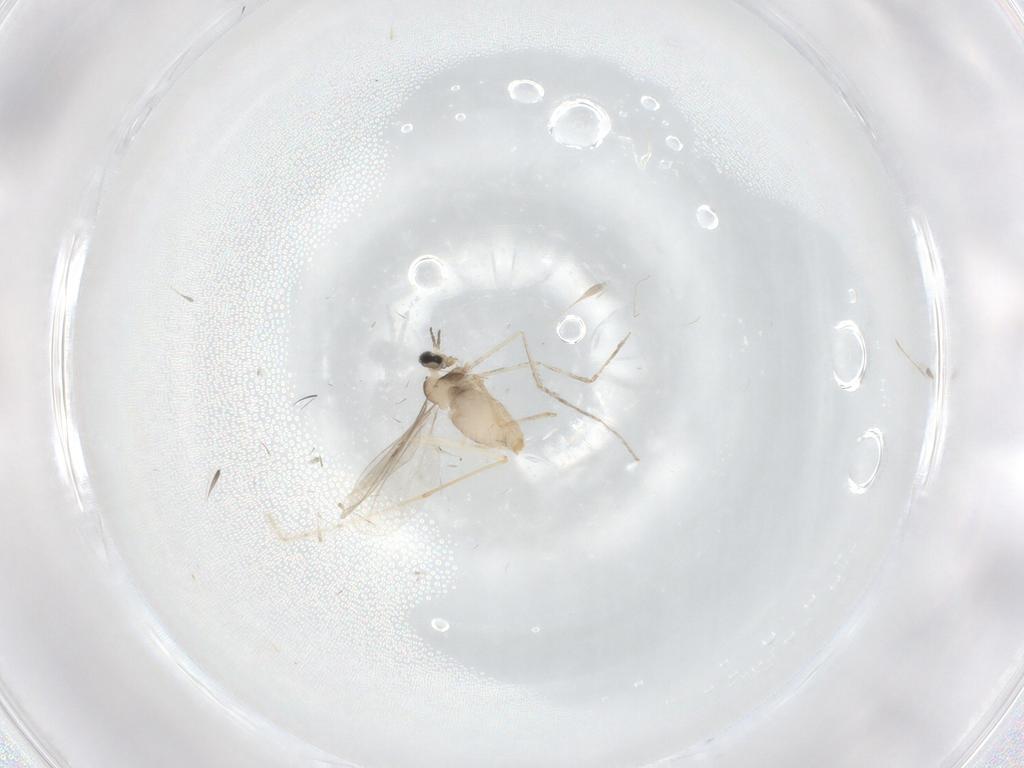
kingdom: Animalia
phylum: Arthropoda
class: Insecta
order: Diptera
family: Cecidomyiidae
